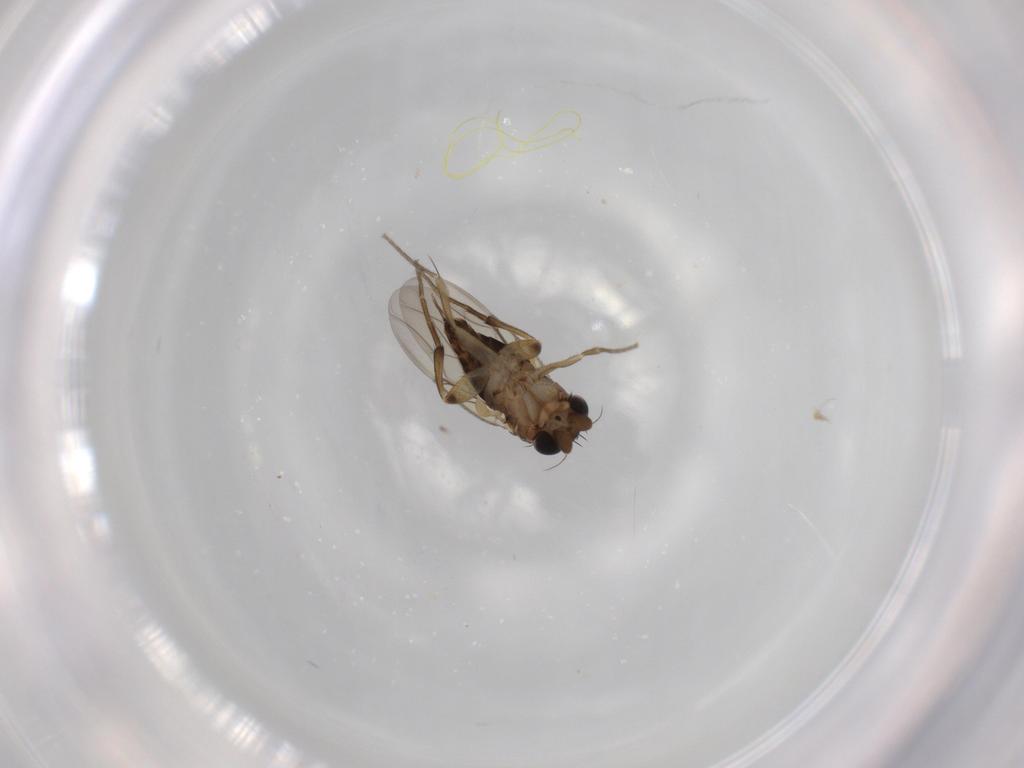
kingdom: Animalia
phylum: Arthropoda
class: Insecta
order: Diptera
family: Phoridae
